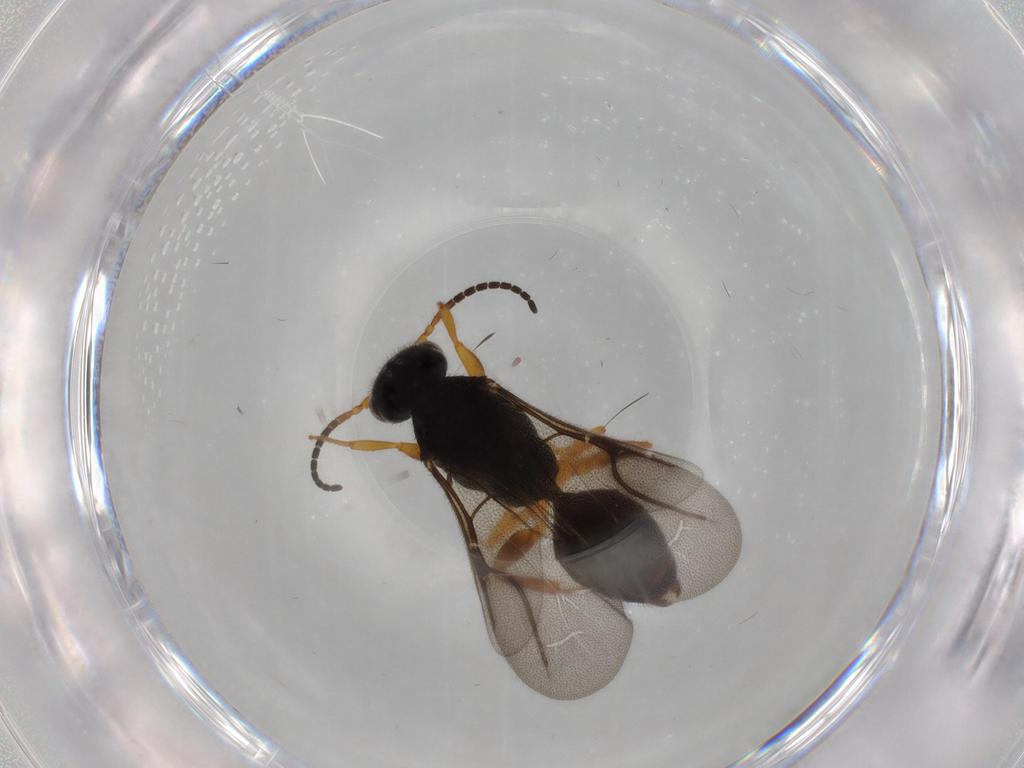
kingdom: Animalia
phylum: Arthropoda
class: Insecta
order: Hymenoptera
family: Bethylidae
